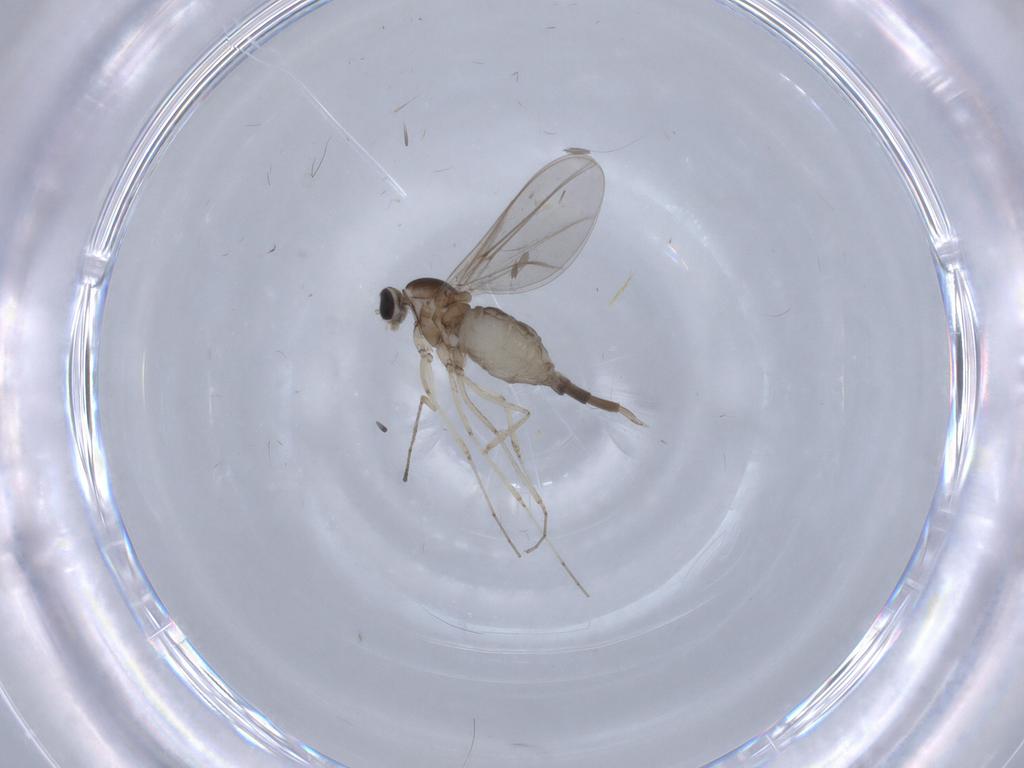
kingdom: Animalia
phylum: Arthropoda
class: Insecta
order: Diptera
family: Cecidomyiidae
